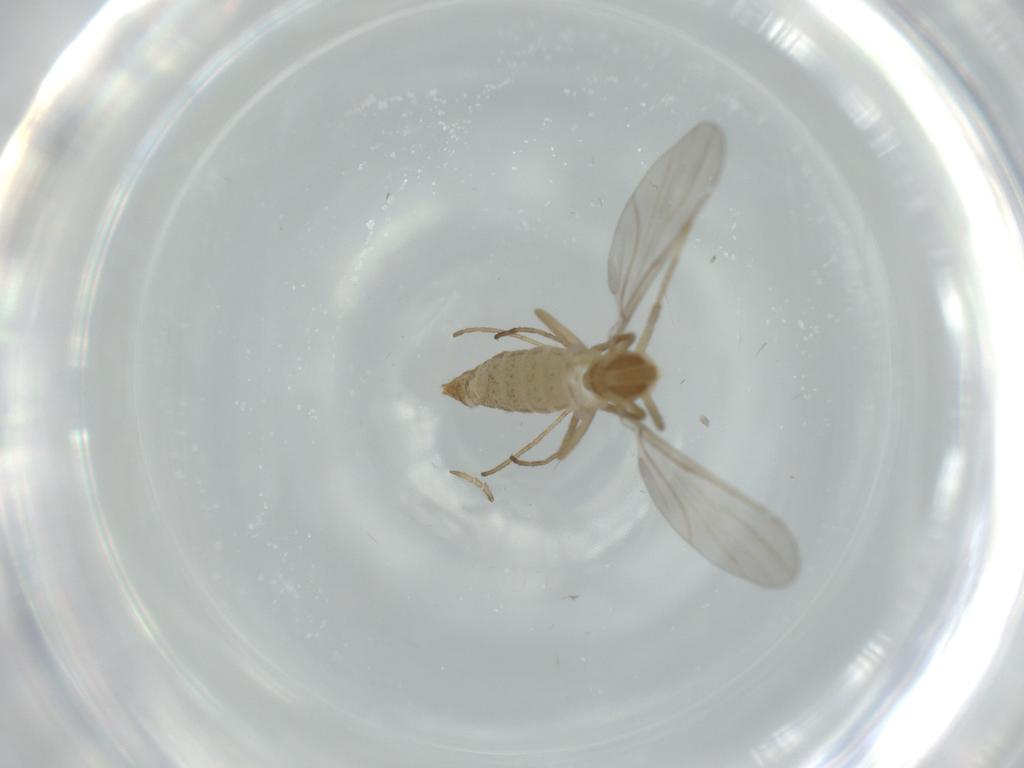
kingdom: Animalia
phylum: Arthropoda
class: Insecta
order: Diptera
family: Cecidomyiidae
